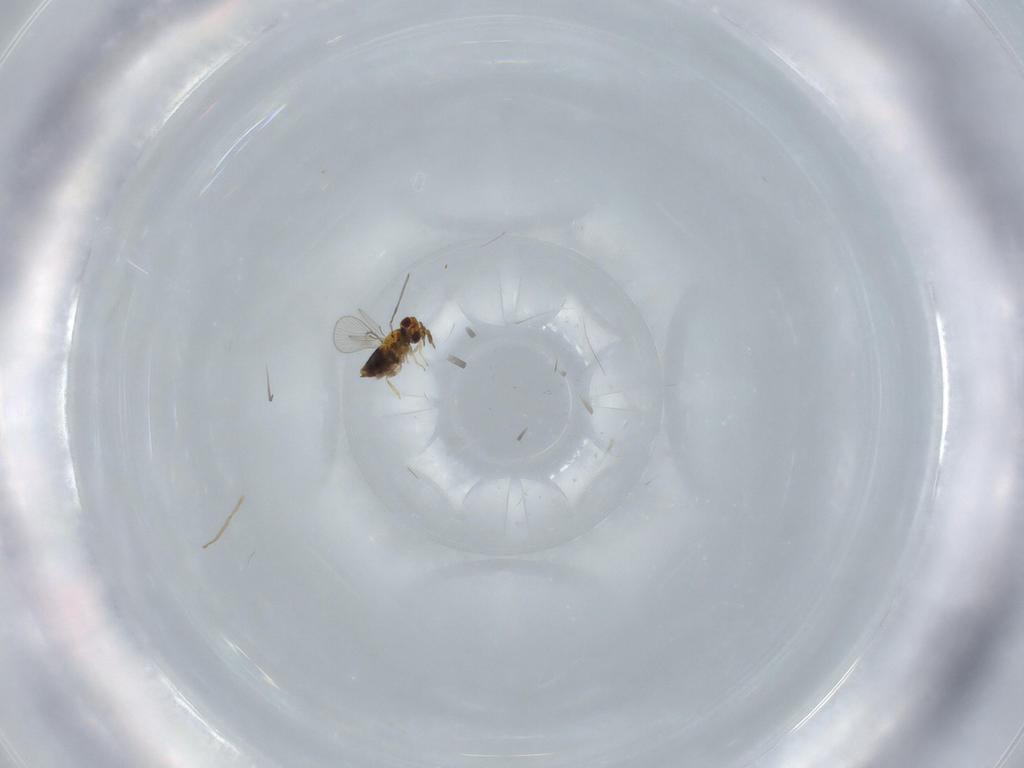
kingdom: Animalia
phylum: Arthropoda
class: Insecta
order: Hymenoptera
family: Trichogrammatidae
